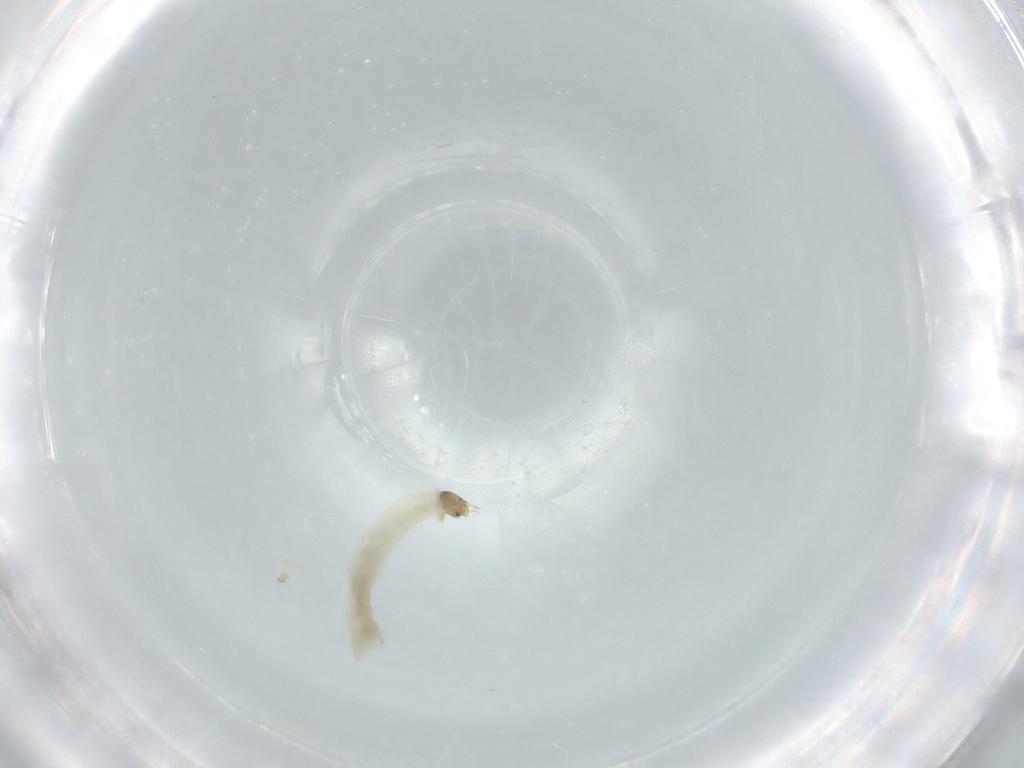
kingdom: Animalia
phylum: Arthropoda
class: Insecta
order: Diptera
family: Chironomidae
